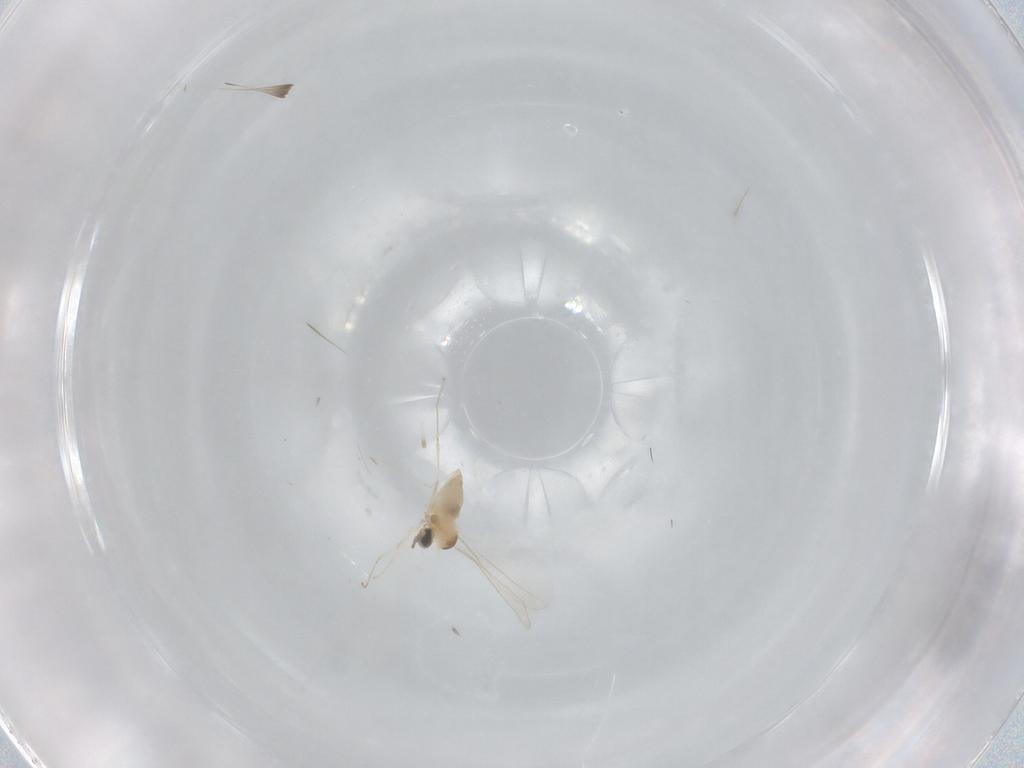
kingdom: Animalia
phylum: Arthropoda
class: Insecta
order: Diptera
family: Cecidomyiidae
